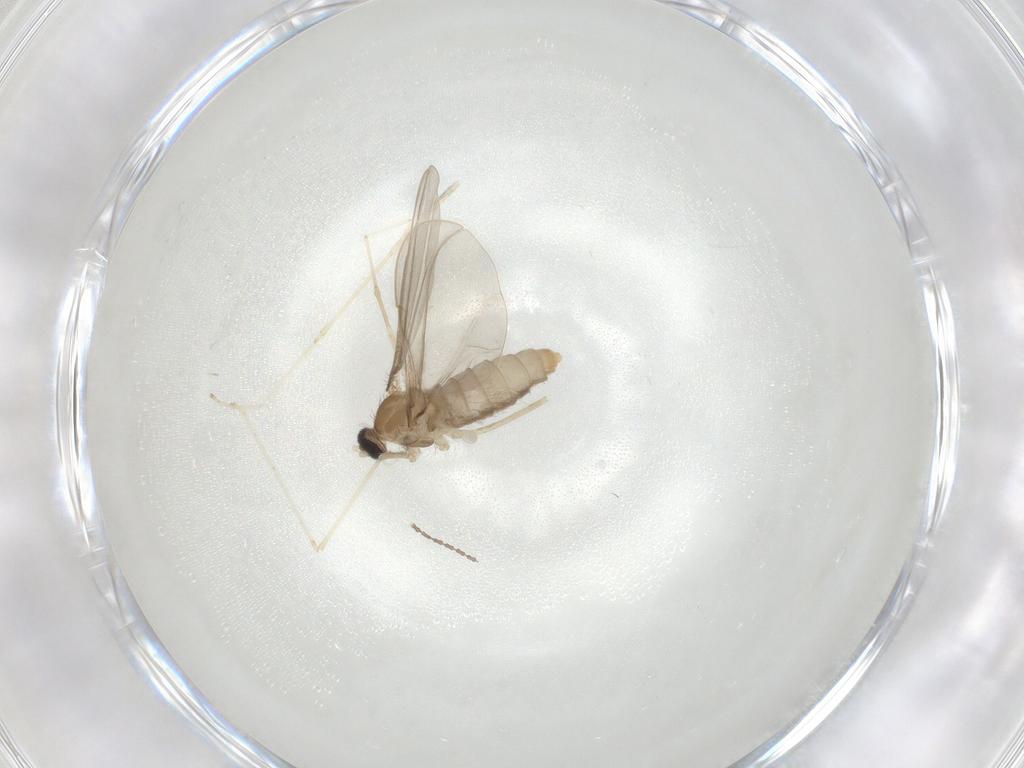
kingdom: Animalia
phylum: Arthropoda
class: Insecta
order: Diptera
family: Cecidomyiidae
